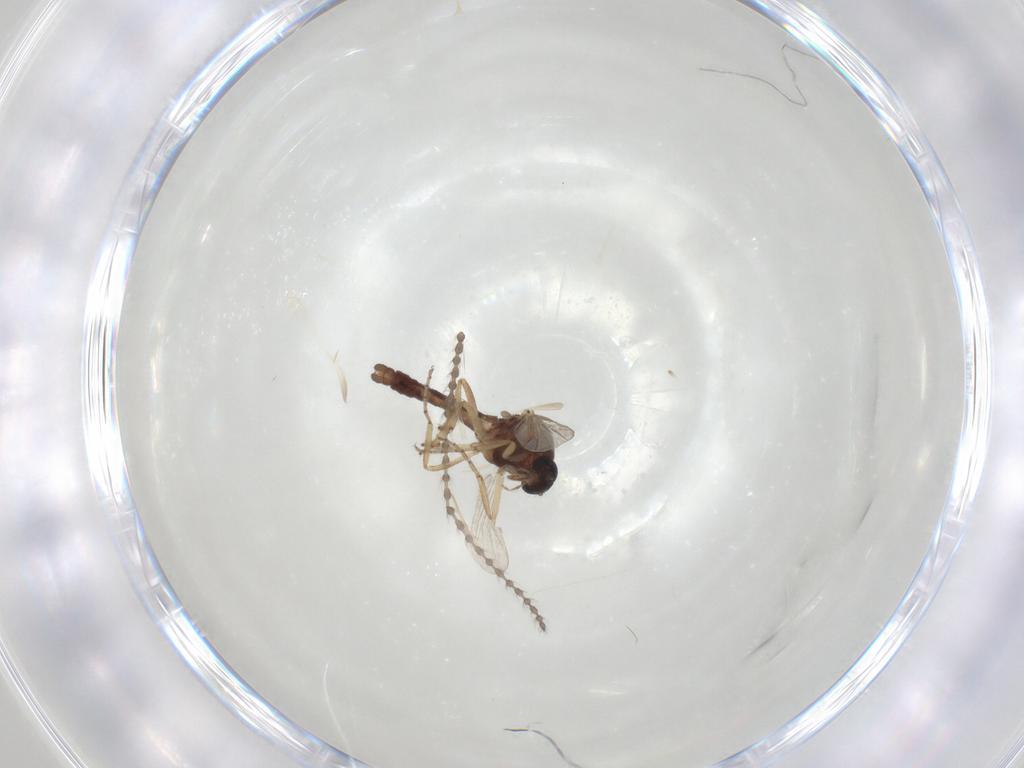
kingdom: Animalia
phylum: Arthropoda
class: Insecta
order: Diptera
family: Ceratopogonidae
